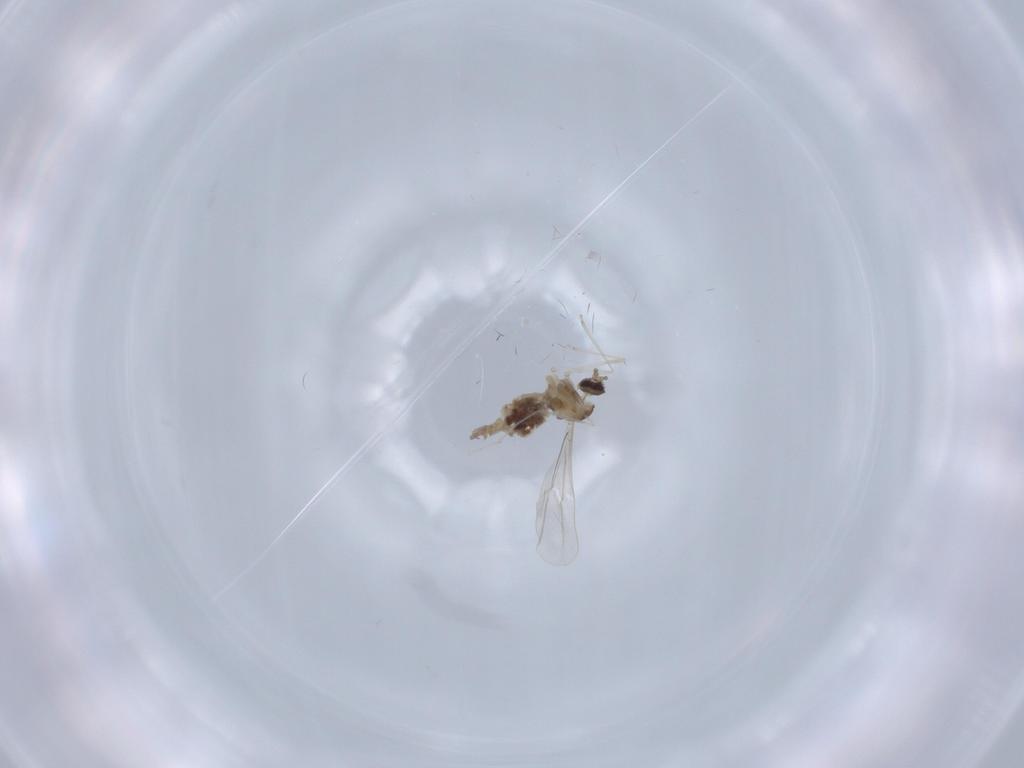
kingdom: Animalia
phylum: Arthropoda
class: Insecta
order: Diptera
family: Cecidomyiidae
